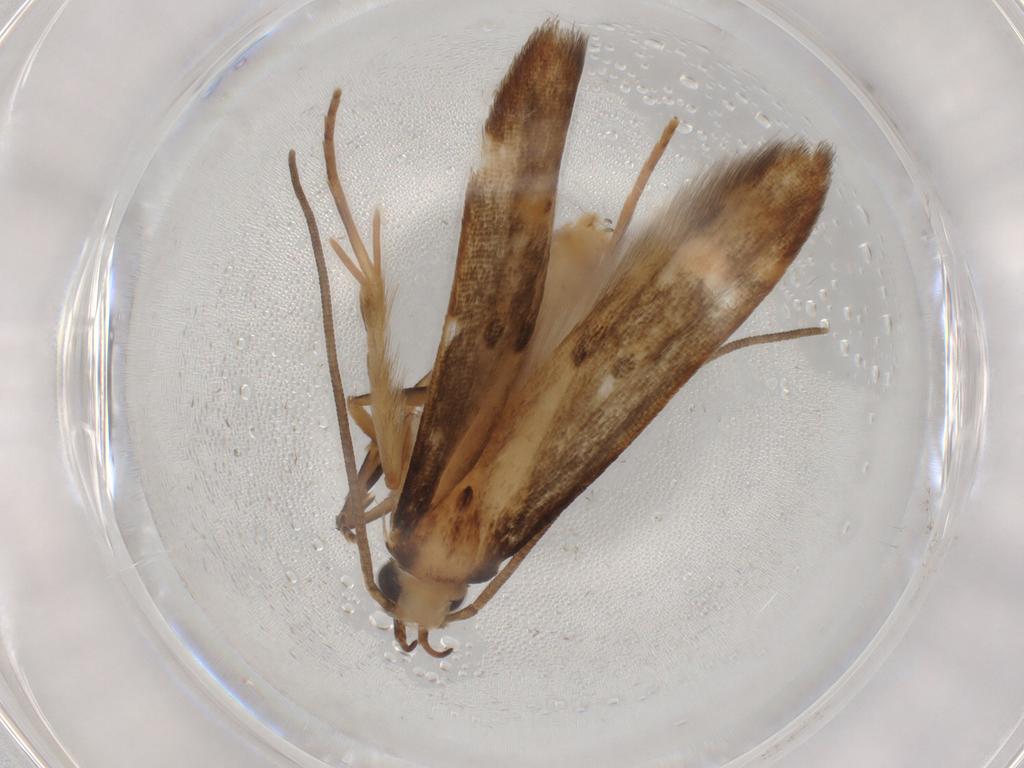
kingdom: Animalia
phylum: Arthropoda
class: Insecta
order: Lepidoptera
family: Nolidae
